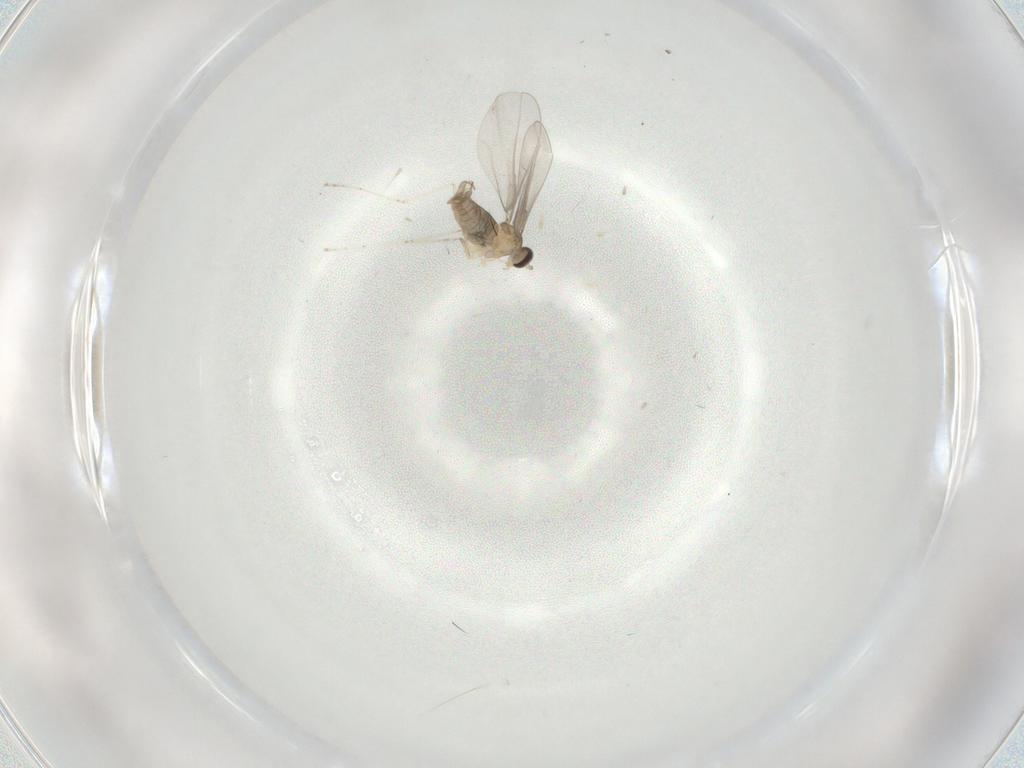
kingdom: Animalia
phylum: Arthropoda
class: Insecta
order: Diptera
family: Cecidomyiidae
